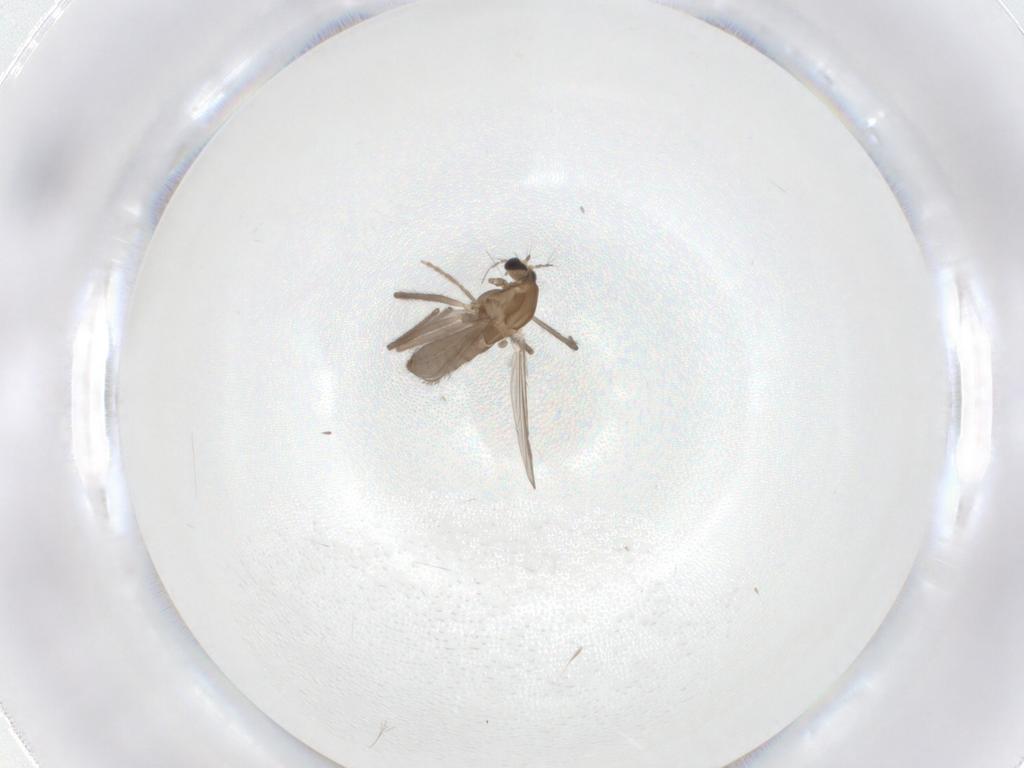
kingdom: Animalia
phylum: Arthropoda
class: Insecta
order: Diptera
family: Chironomidae
